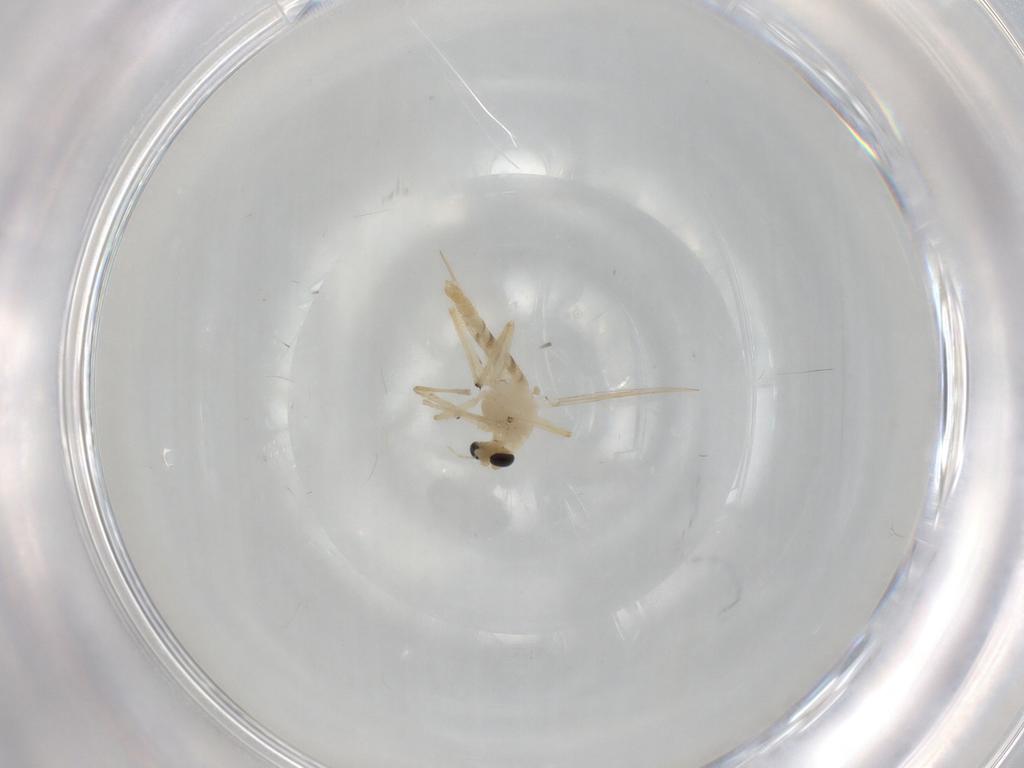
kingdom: Animalia
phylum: Arthropoda
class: Insecta
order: Diptera
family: Chironomidae
